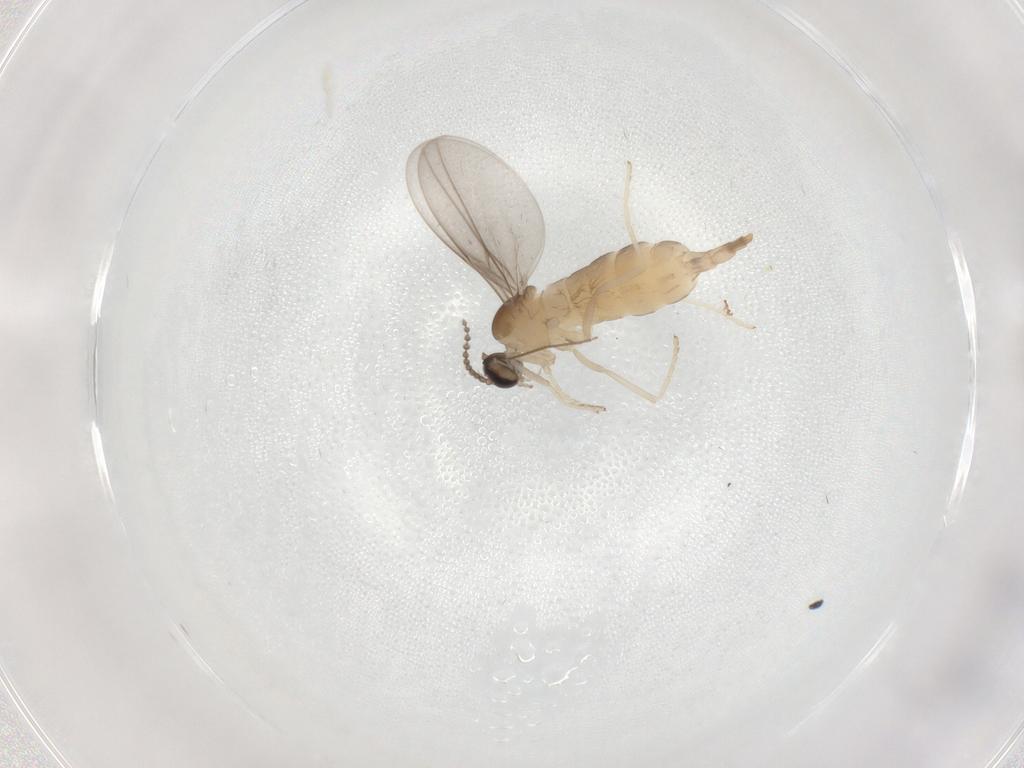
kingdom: Animalia
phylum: Arthropoda
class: Insecta
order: Diptera
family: Cecidomyiidae
